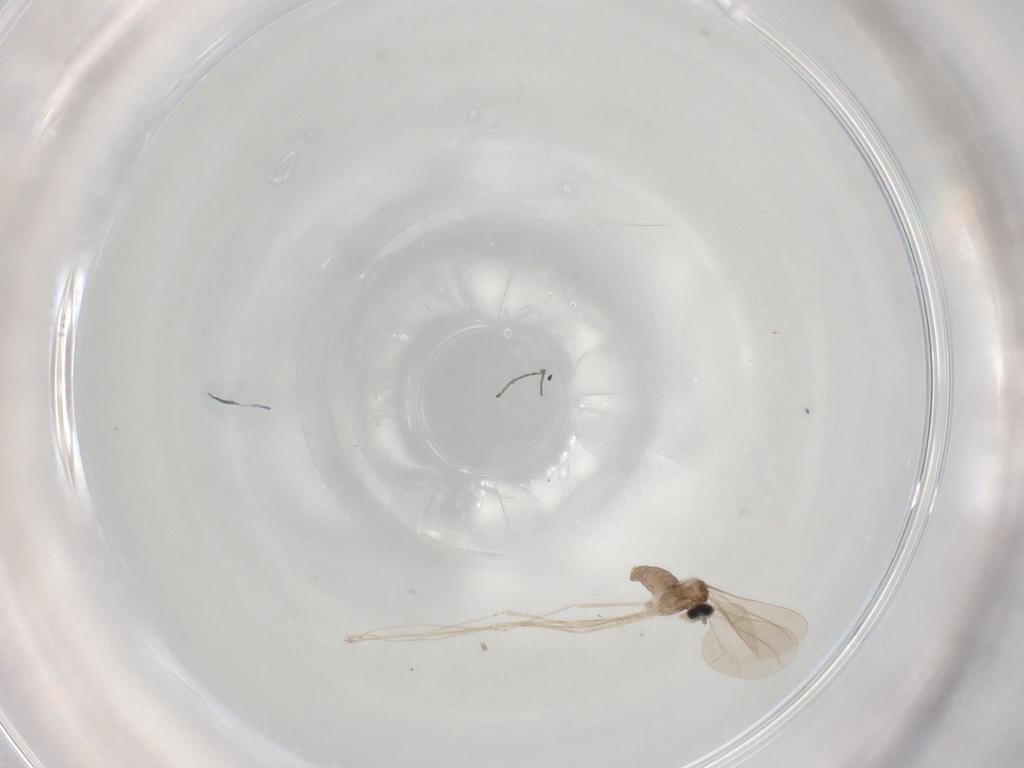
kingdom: Animalia
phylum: Arthropoda
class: Insecta
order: Diptera
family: Cecidomyiidae
